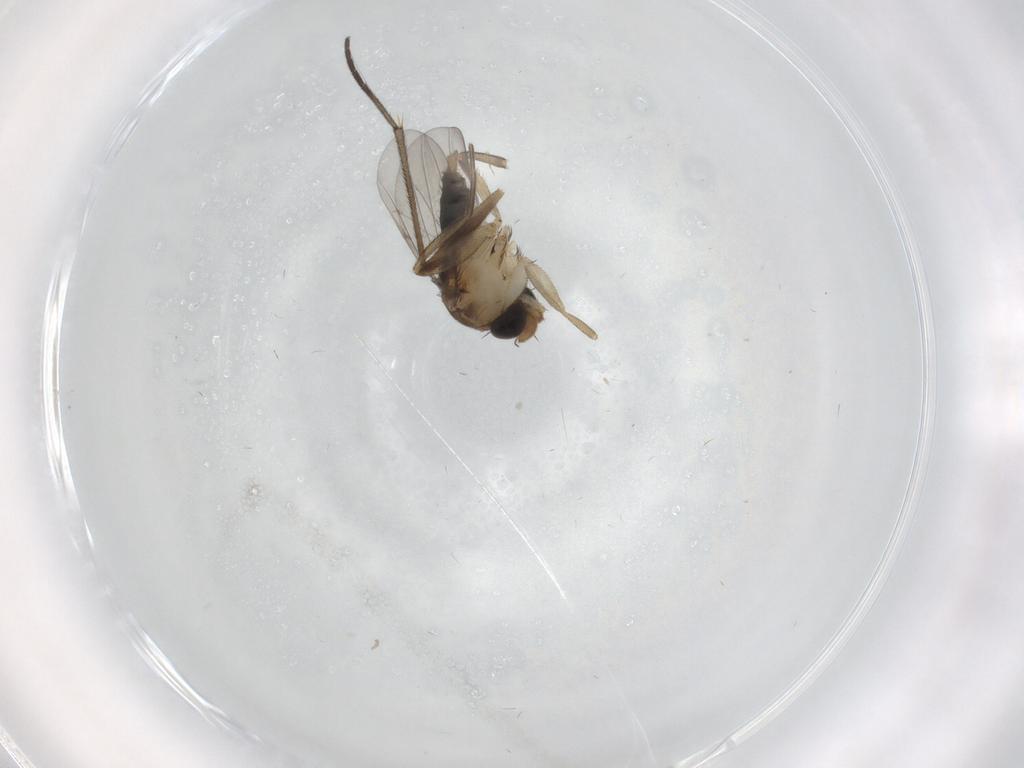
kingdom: Animalia
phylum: Arthropoda
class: Insecta
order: Diptera
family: Phoridae
